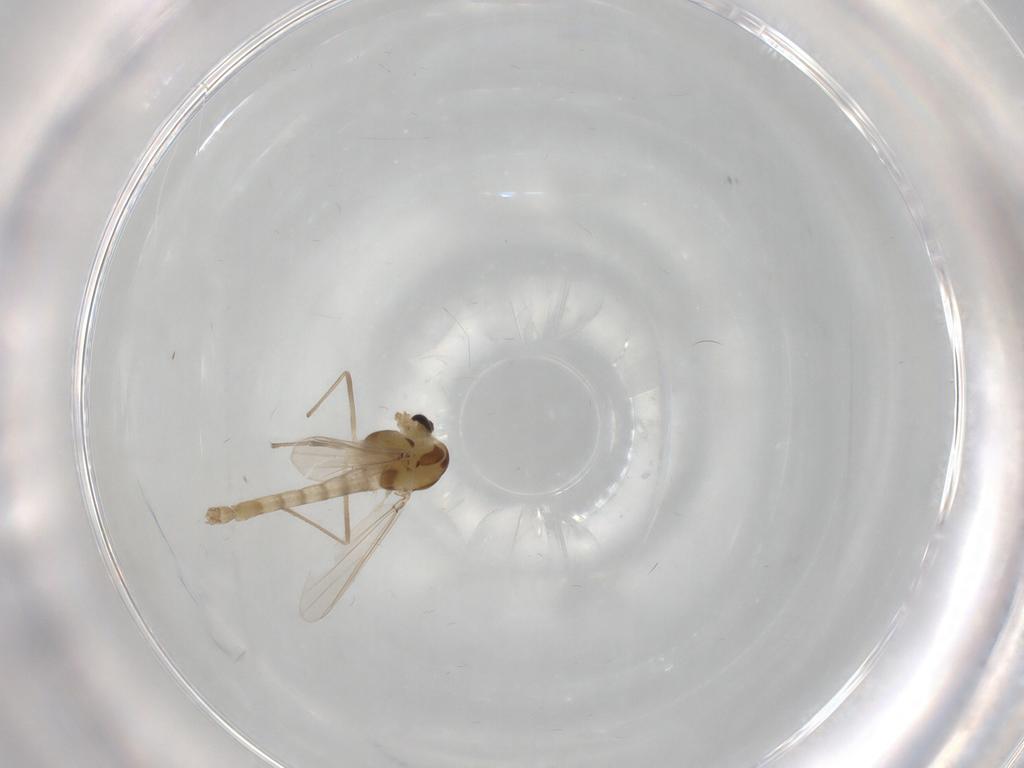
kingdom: Animalia
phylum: Arthropoda
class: Insecta
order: Diptera
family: Chironomidae
